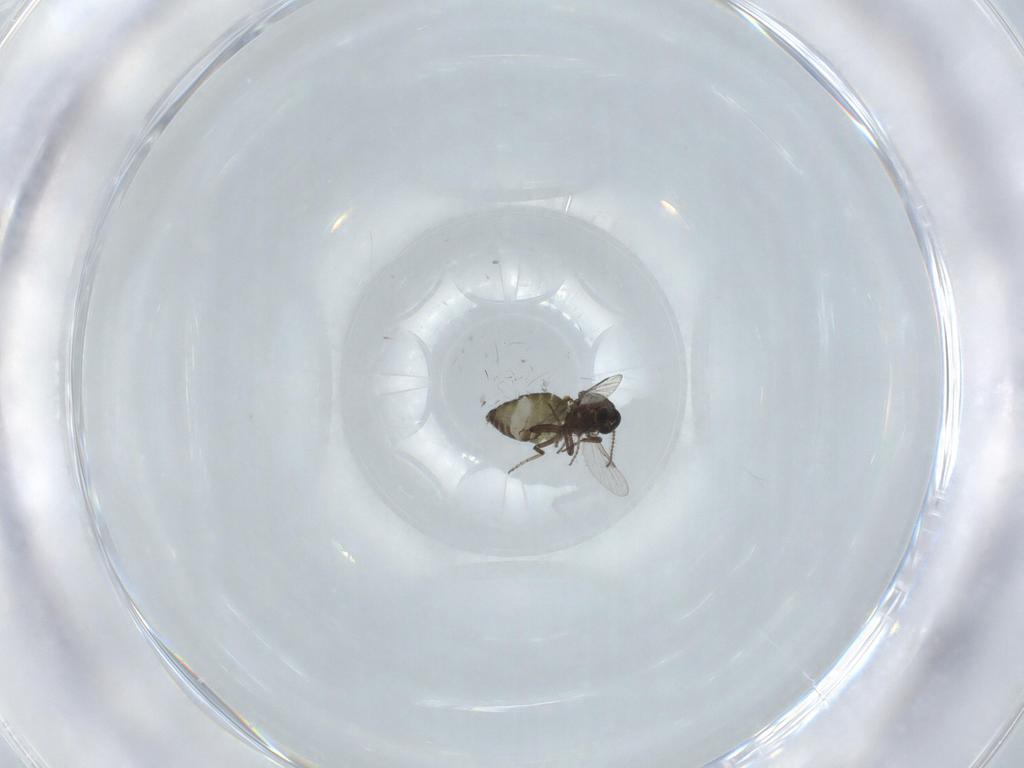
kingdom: Animalia
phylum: Arthropoda
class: Insecta
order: Diptera
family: Ceratopogonidae
